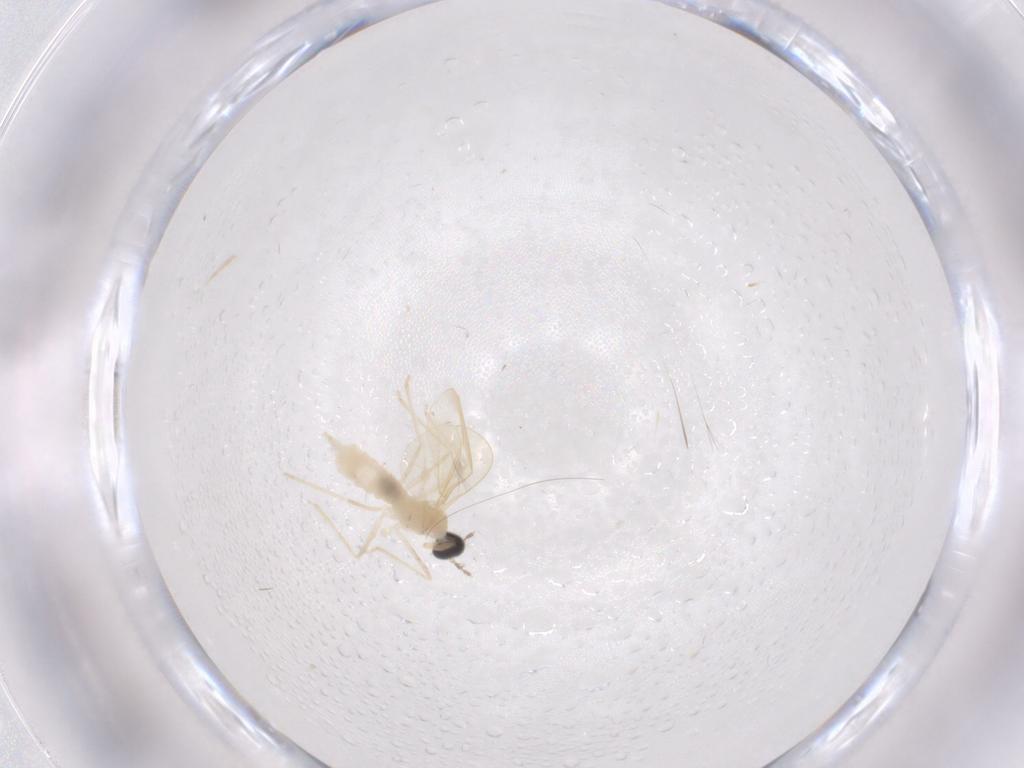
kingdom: Animalia
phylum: Arthropoda
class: Insecta
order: Diptera
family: Cecidomyiidae
